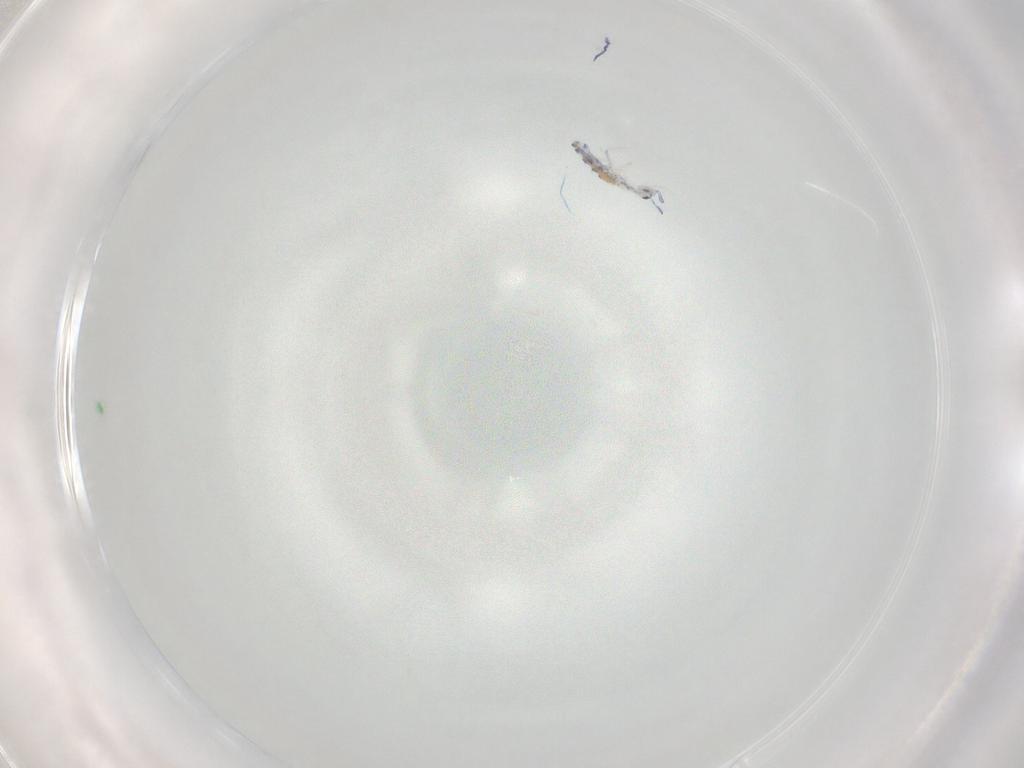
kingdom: Animalia
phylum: Arthropoda
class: Collembola
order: Entomobryomorpha
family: Entomobryidae
